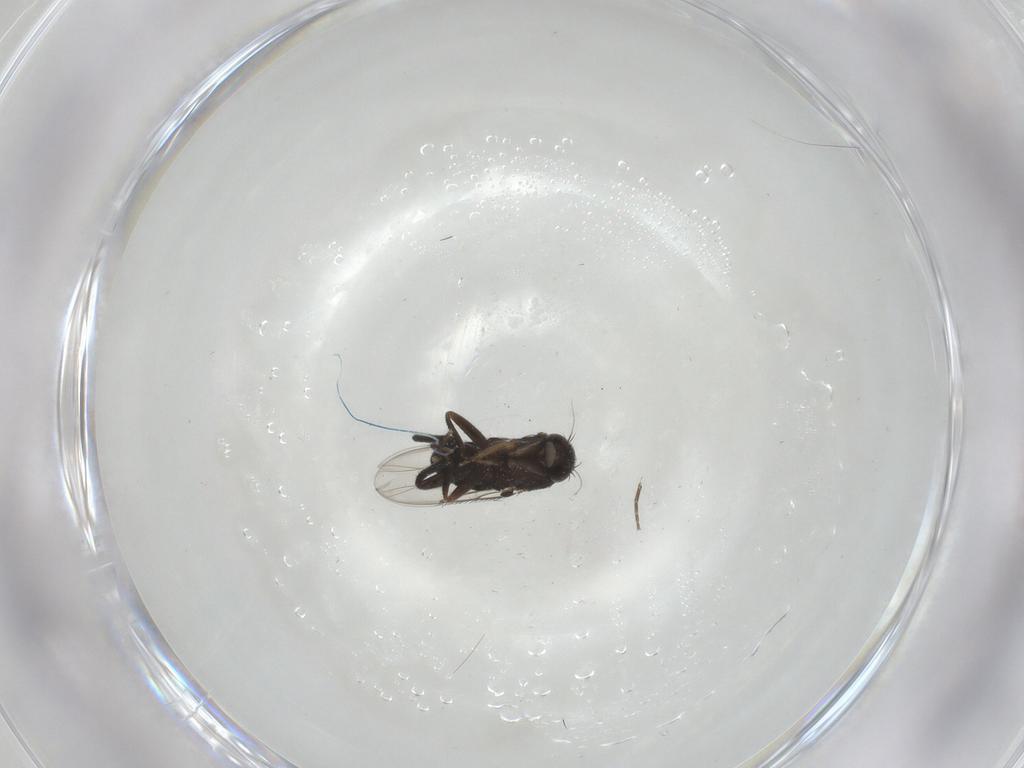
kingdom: Animalia
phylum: Arthropoda
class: Insecta
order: Diptera
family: Phoridae
